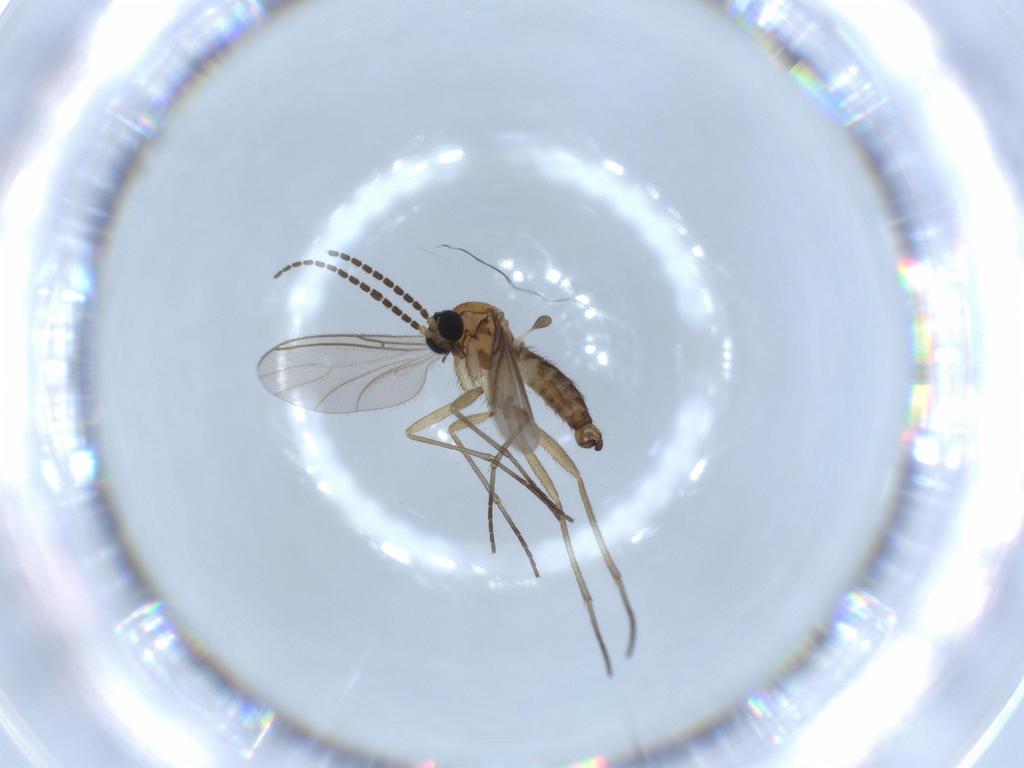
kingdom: Animalia
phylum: Arthropoda
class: Insecta
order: Diptera
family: Sciaridae
